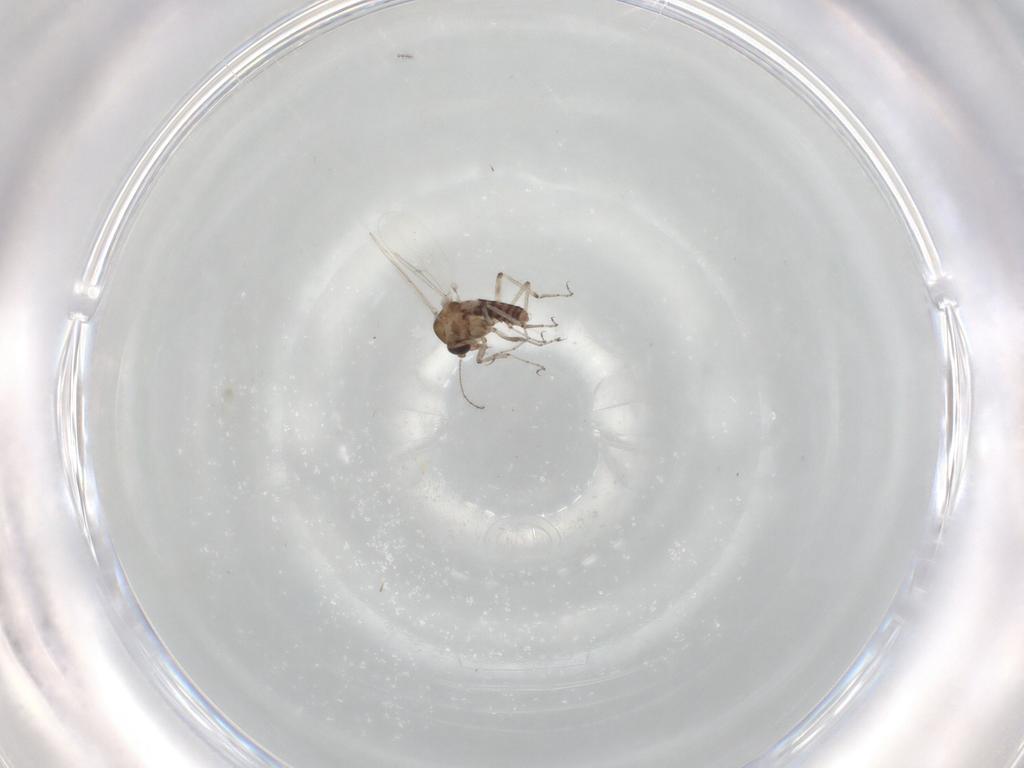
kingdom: Animalia
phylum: Arthropoda
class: Insecta
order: Diptera
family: Ceratopogonidae
